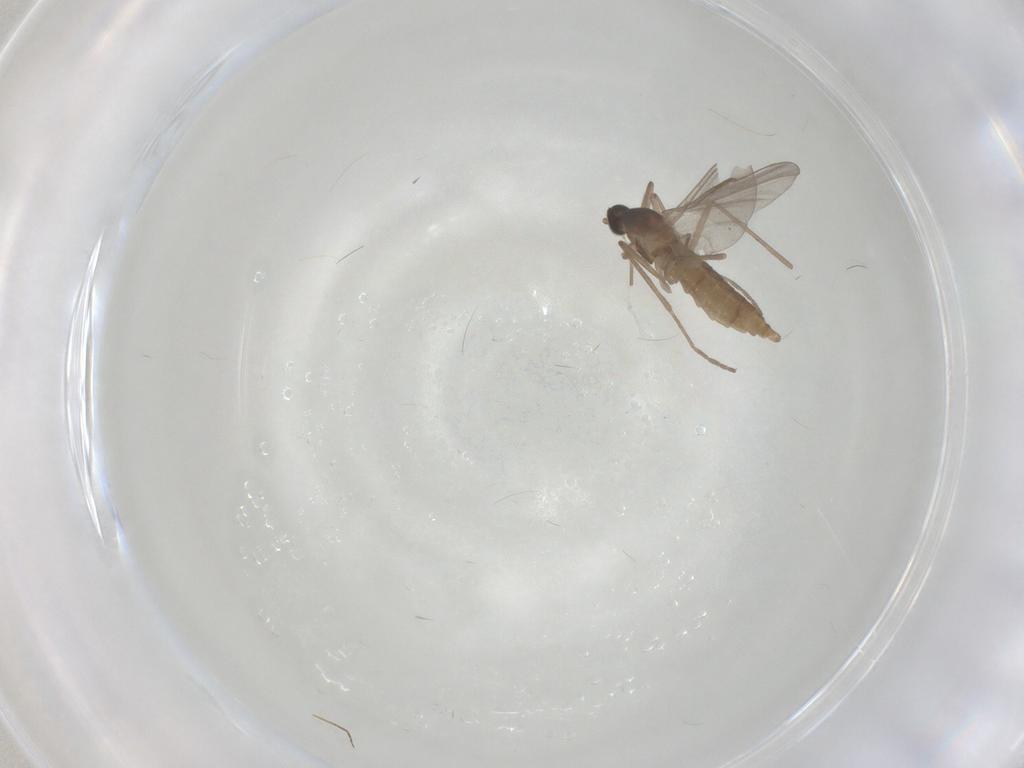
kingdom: Animalia
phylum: Arthropoda
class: Insecta
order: Diptera
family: Cecidomyiidae
